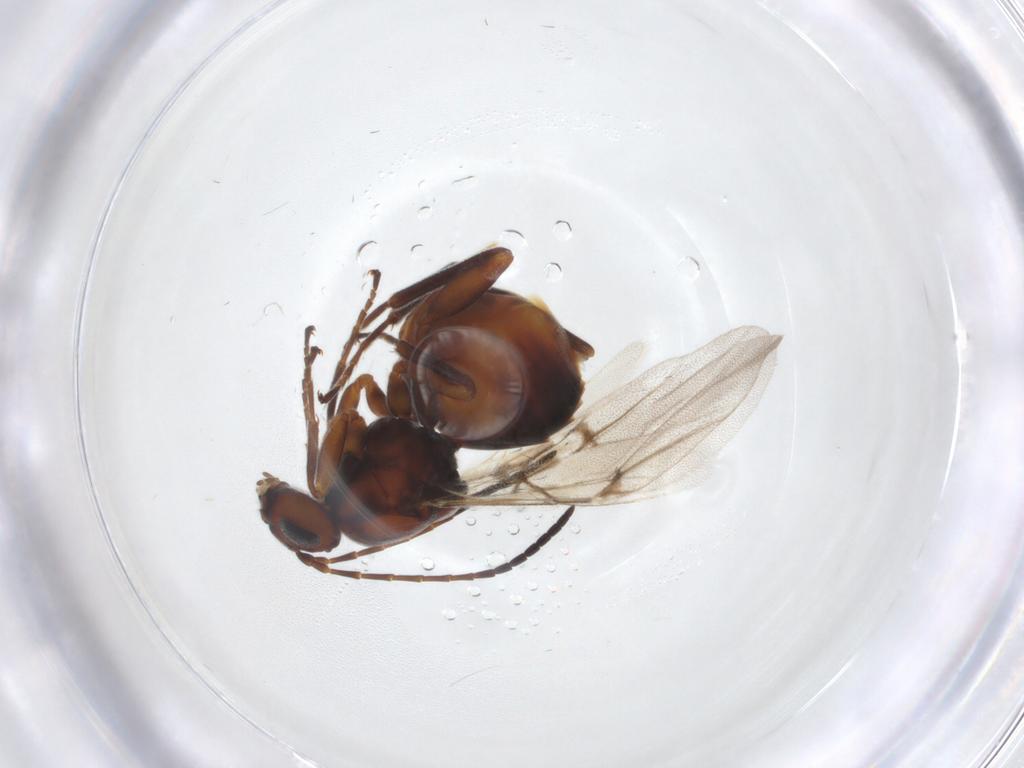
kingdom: Animalia
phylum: Arthropoda
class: Insecta
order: Hymenoptera
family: Cynipidae
